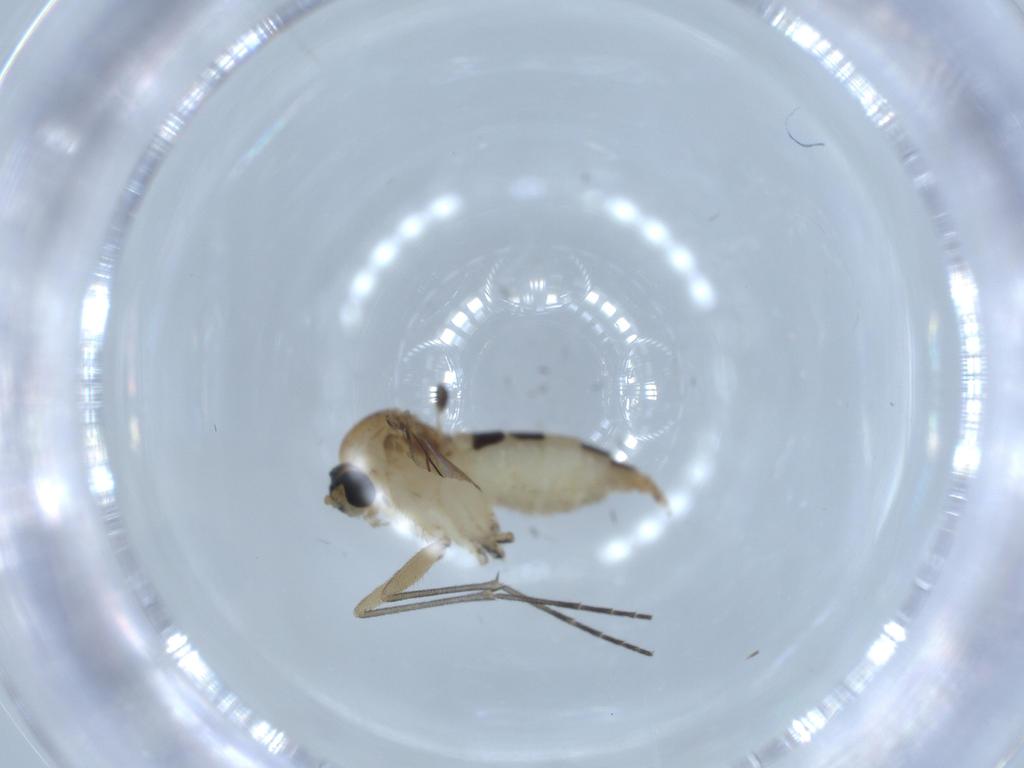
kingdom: Animalia
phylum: Arthropoda
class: Insecta
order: Diptera
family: Sciaridae
